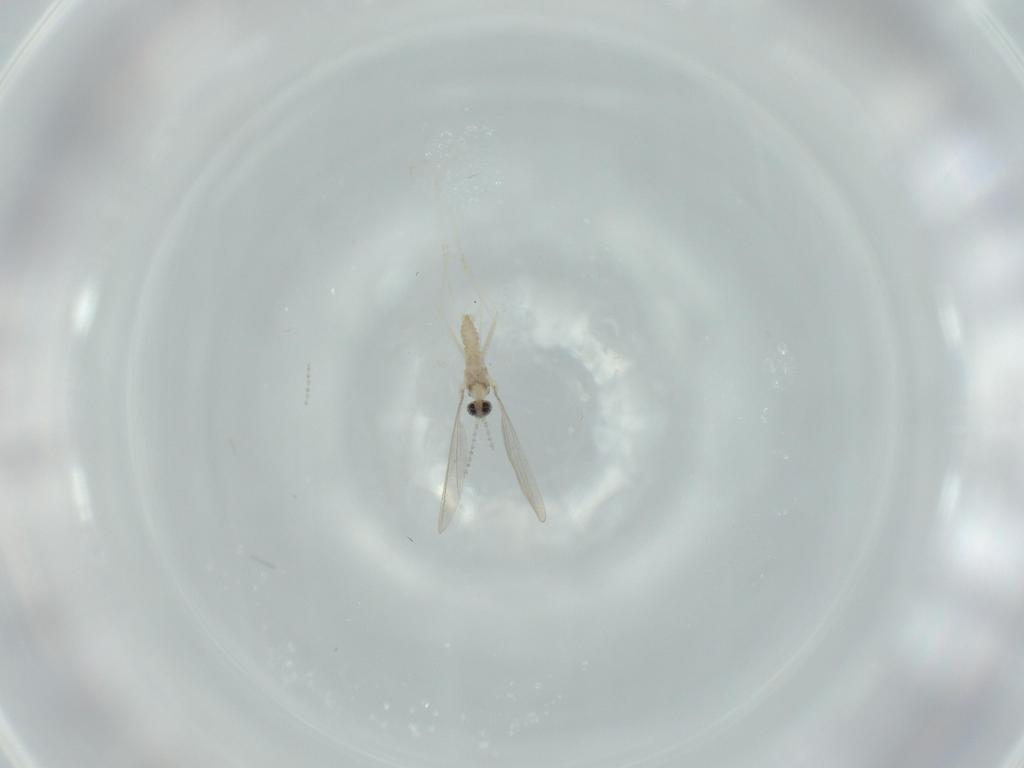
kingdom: Animalia
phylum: Arthropoda
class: Insecta
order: Diptera
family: Cecidomyiidae
